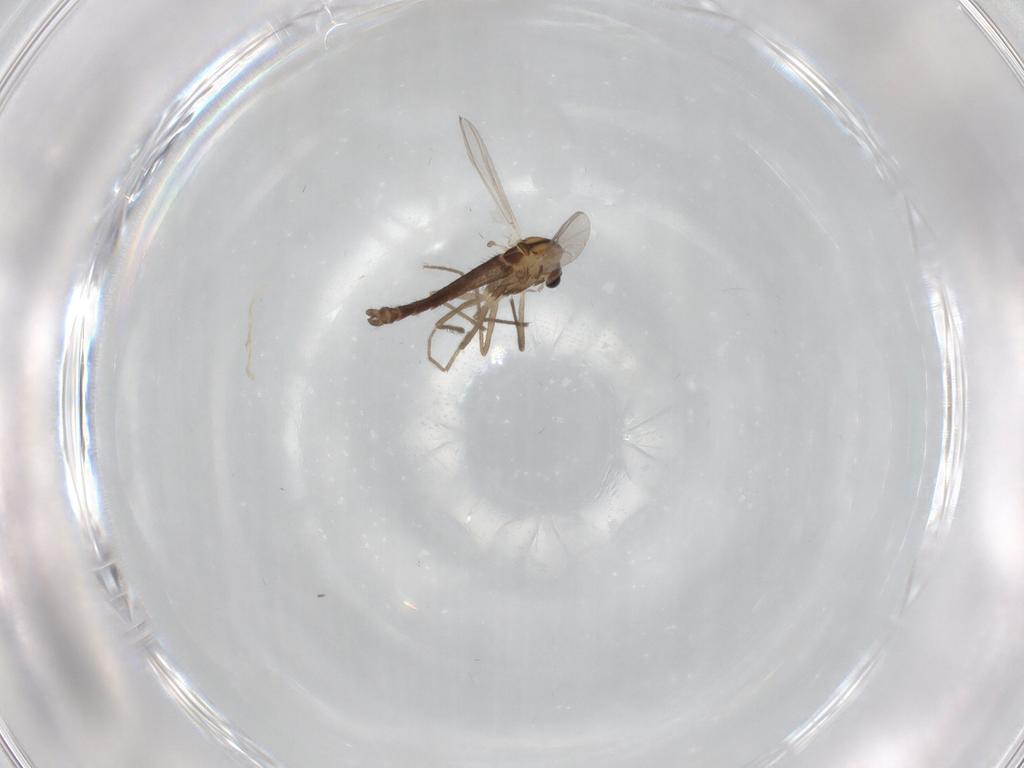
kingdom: Animalia
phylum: Arthropoda
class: Insecta
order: Diptera
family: Chironomidae
